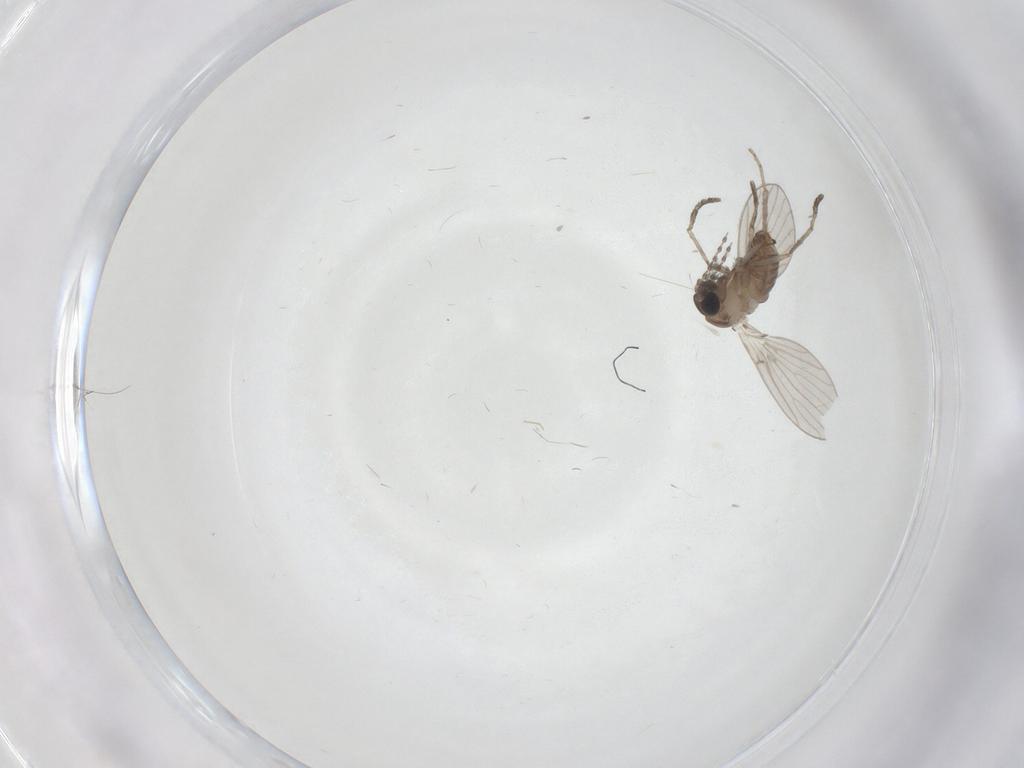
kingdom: Animalia
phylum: Arthropoda
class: Insecta
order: Diptera
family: Psychodidae
